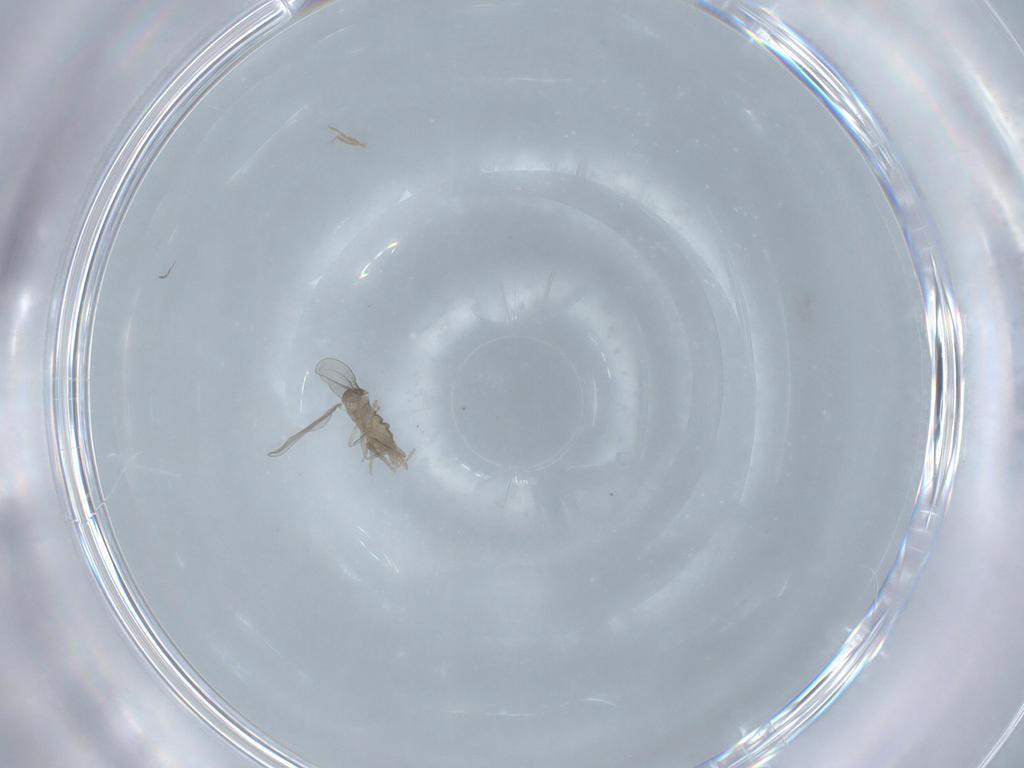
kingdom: Animalia
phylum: Arthropoda
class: Insecta
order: Diptera
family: Cecidomyiidae
